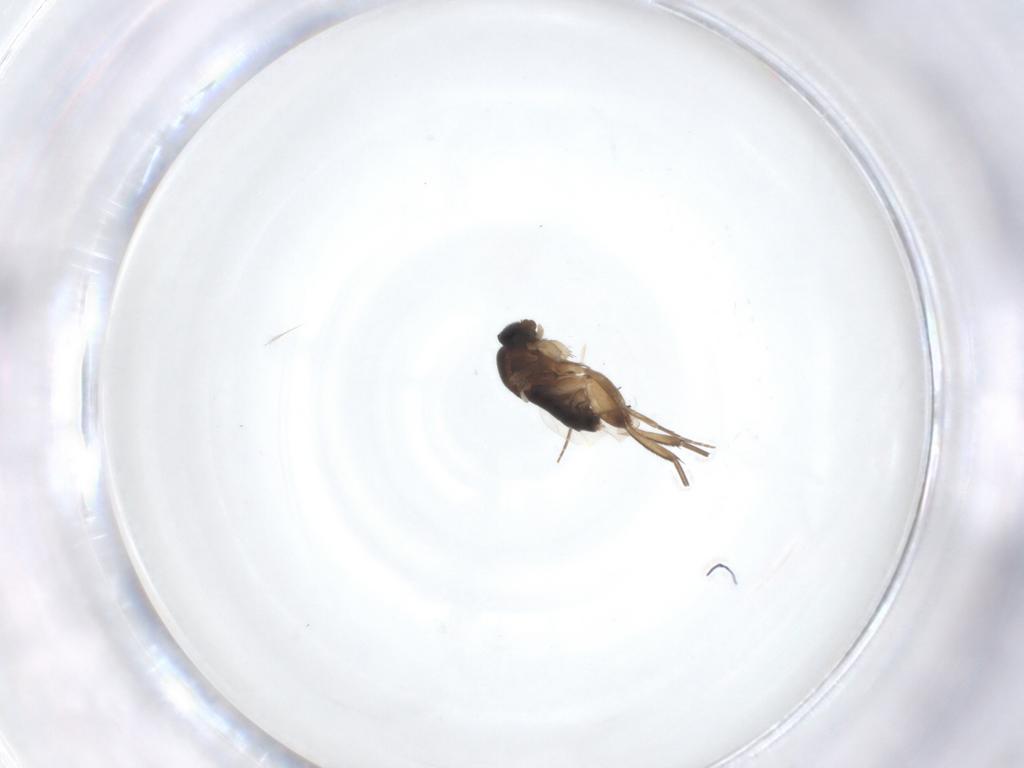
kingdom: Animalia
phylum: Arthropoda
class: Insecta
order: Diptera
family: Phoridae
